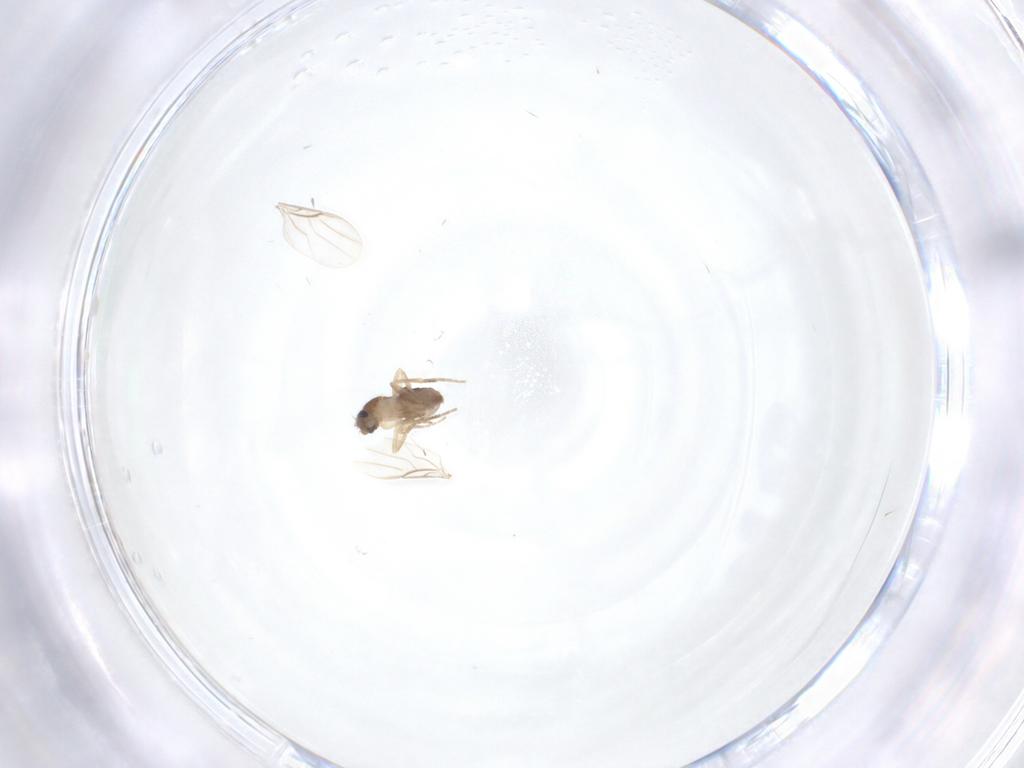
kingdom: Animalia
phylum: Arthropoda
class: Insecta
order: Diptera
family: Phoridae
